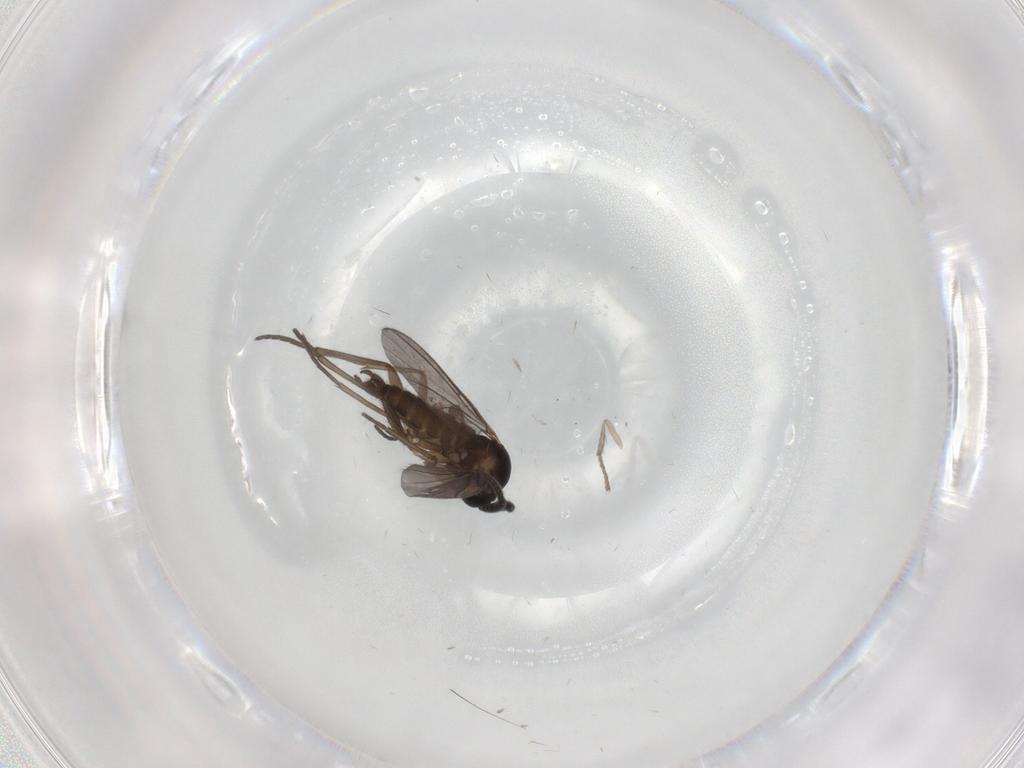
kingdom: Animalia
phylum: Arthropoda
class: Insecta
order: Diptera
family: Sciaridae
